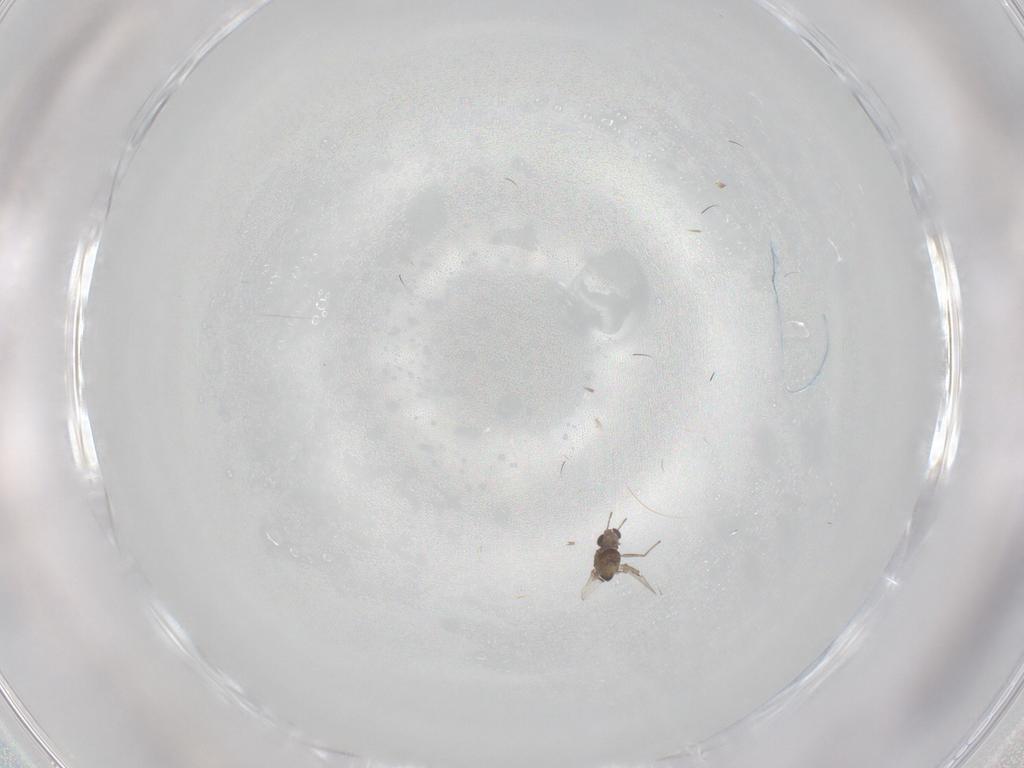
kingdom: Animalia
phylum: Arthropoda
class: Insecta
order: Diptera
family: Chironomidae
